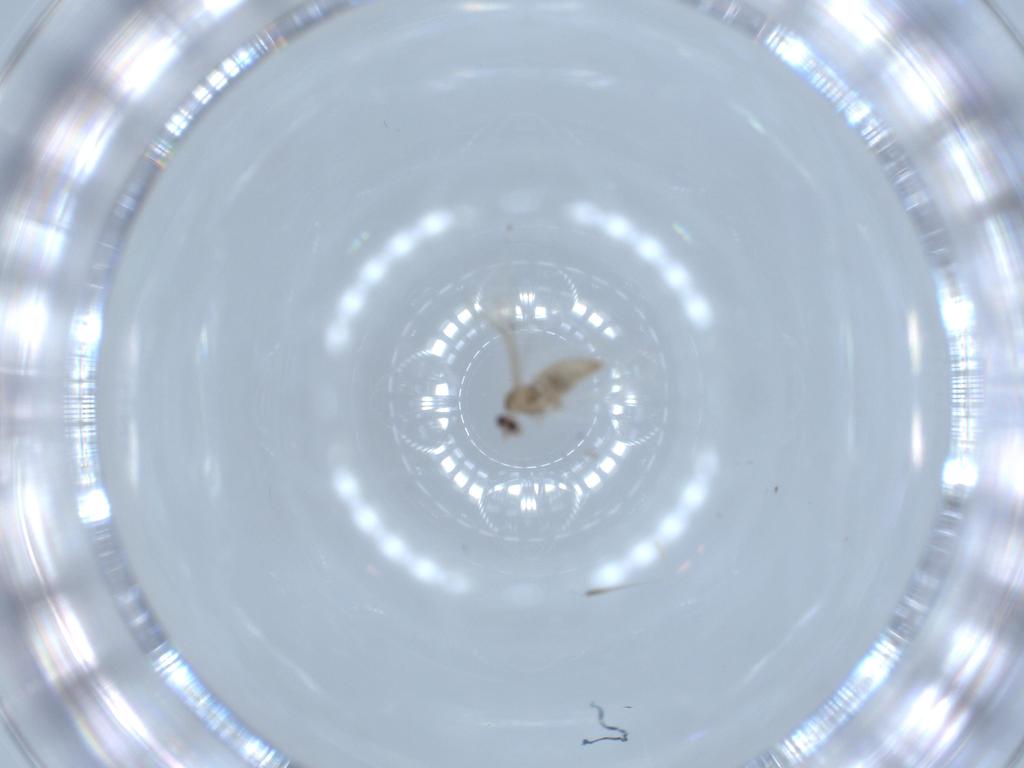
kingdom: Animalia
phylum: Arthropoda
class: Insecta
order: Diptera
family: Cecidomyiidae
